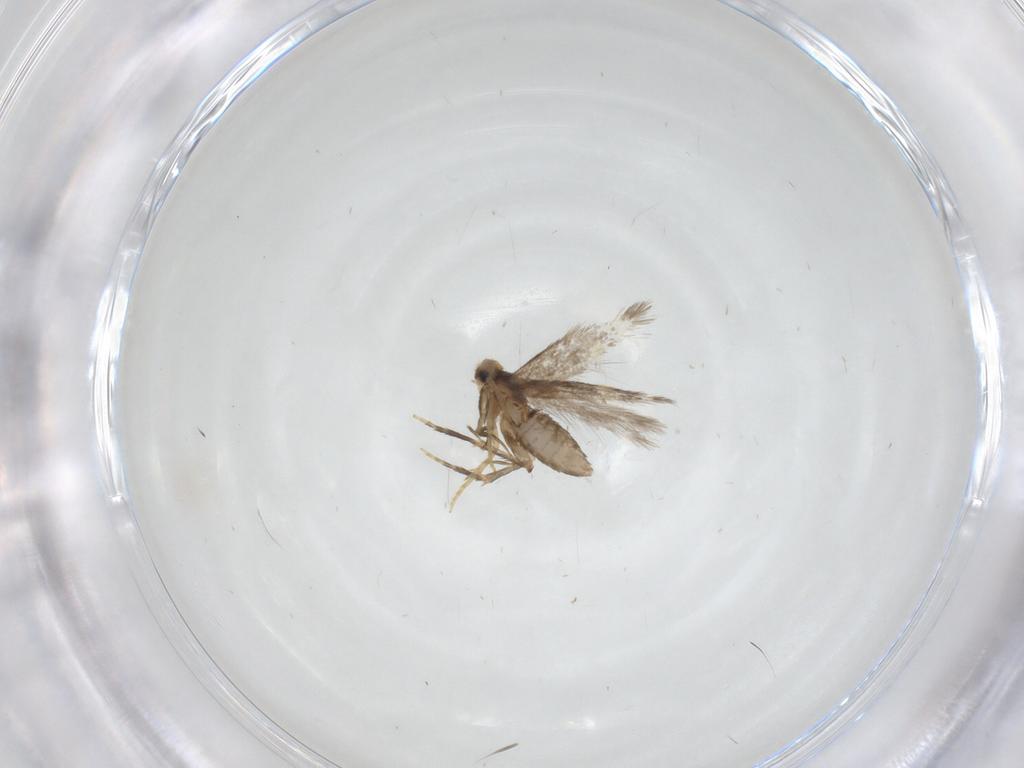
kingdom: Animalia
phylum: Arthropoda
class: Insecta
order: Lepidoptera
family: Nepticulidae
